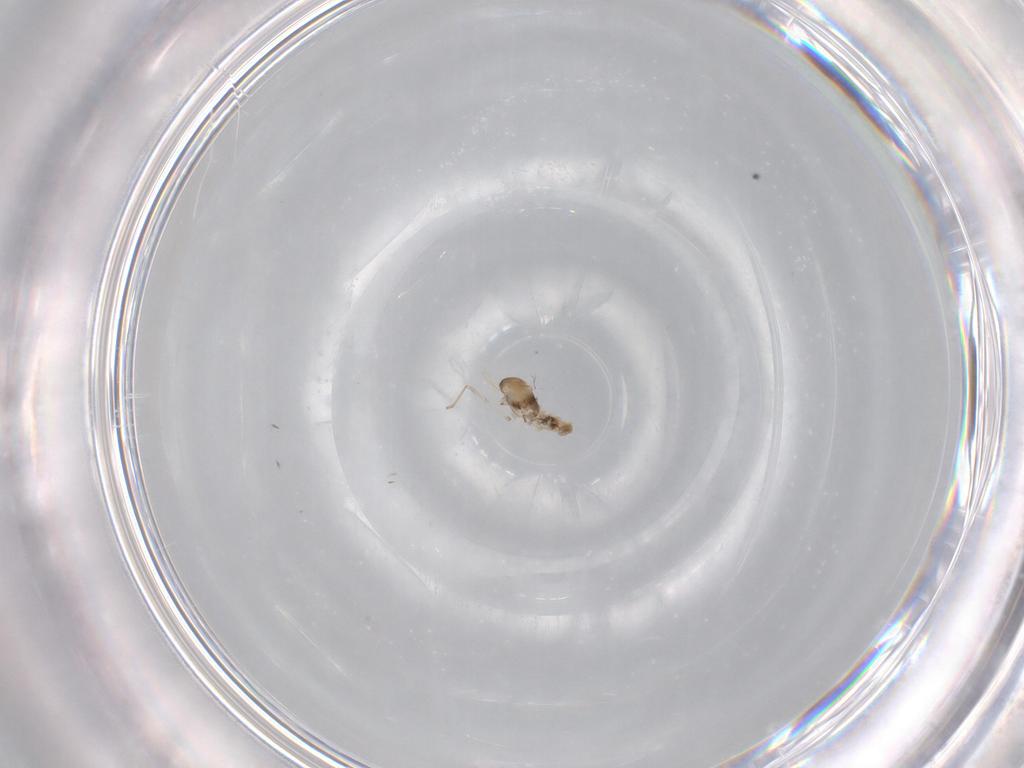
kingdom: Animalia
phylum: Arthropoda
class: Insecta
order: Diptera
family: Cecidomyiidae
